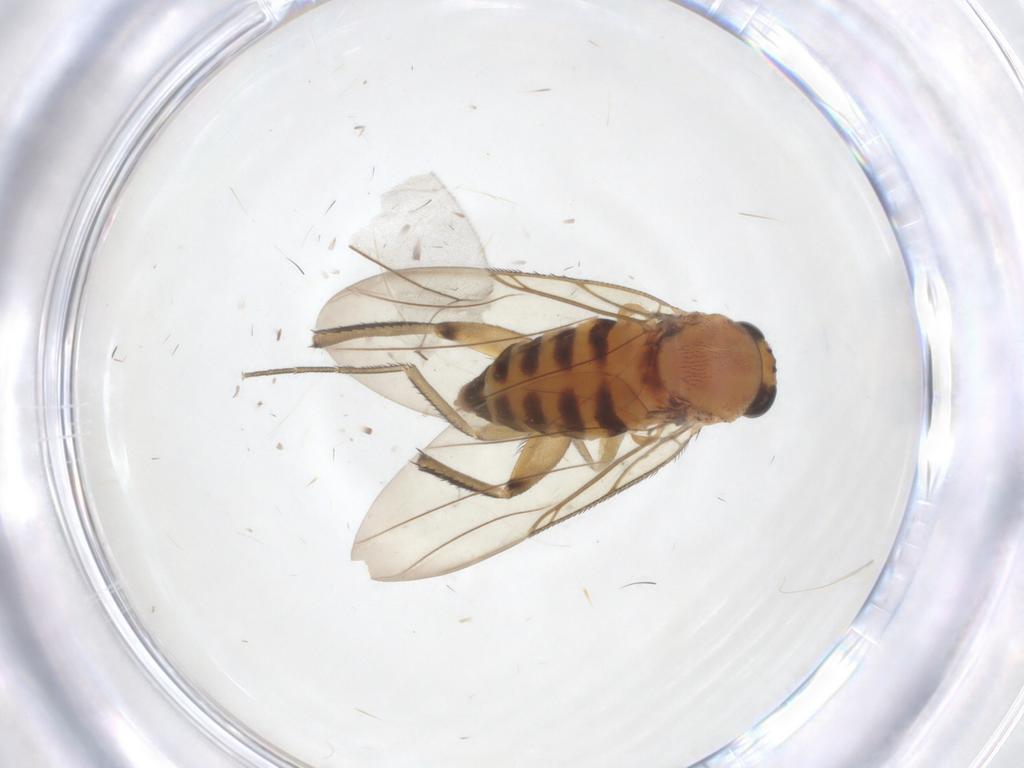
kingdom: Animalia
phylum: Arthropoda
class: Insecta
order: Diptera
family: Phoridae
